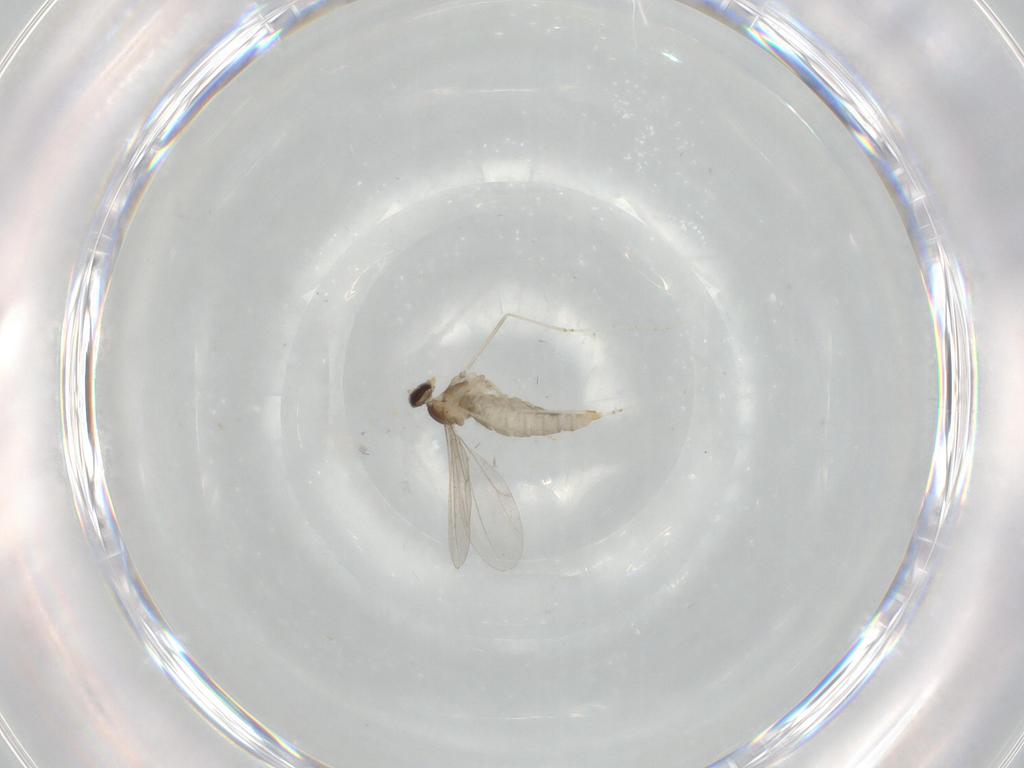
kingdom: Animalia
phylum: Arthropoda
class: Insecta
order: Diptera
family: Cecidomyiidae
